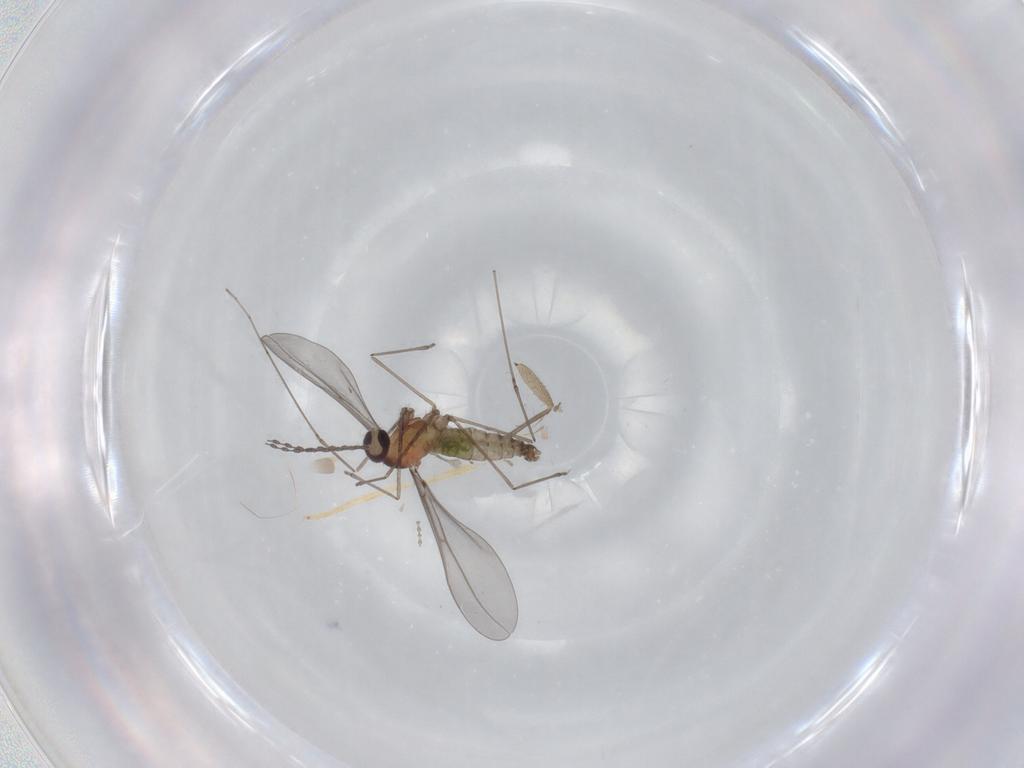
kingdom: Animalia
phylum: Arthropoda
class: Insecta
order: Diptera
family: Cecidomyiidae
